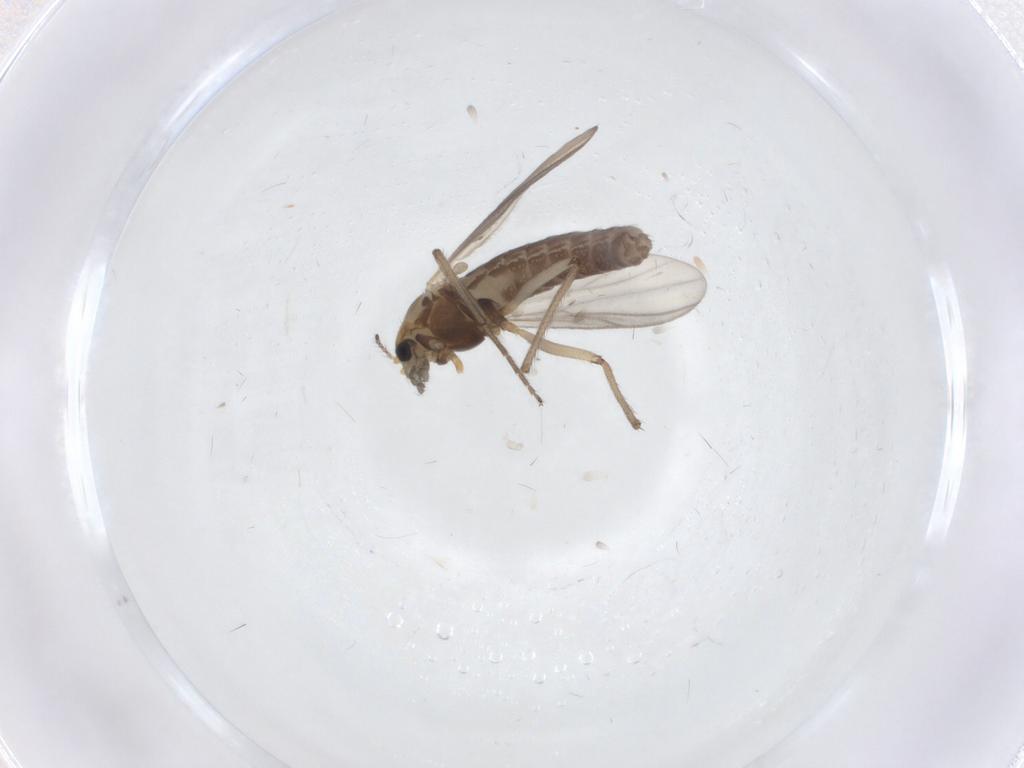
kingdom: Animalia
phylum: Arthropoda
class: Insecta
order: Diptera
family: Chironomidae
